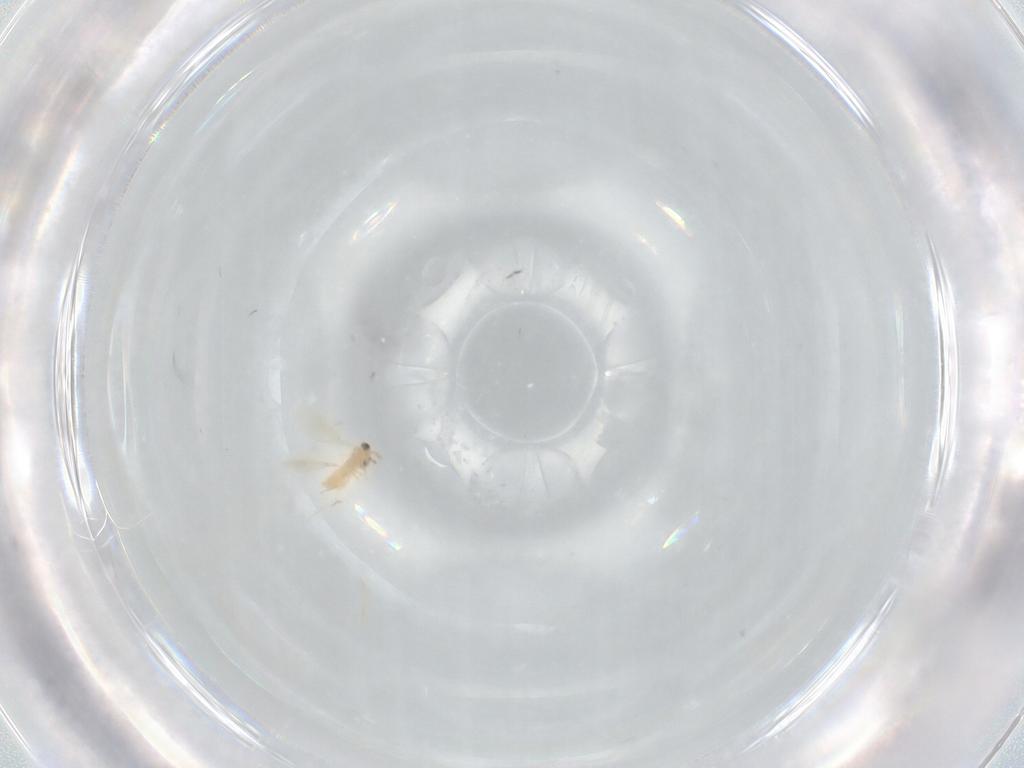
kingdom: Animalia
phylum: Arthropoda
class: Insecta
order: Hymenoptera
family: Aphelinidae
